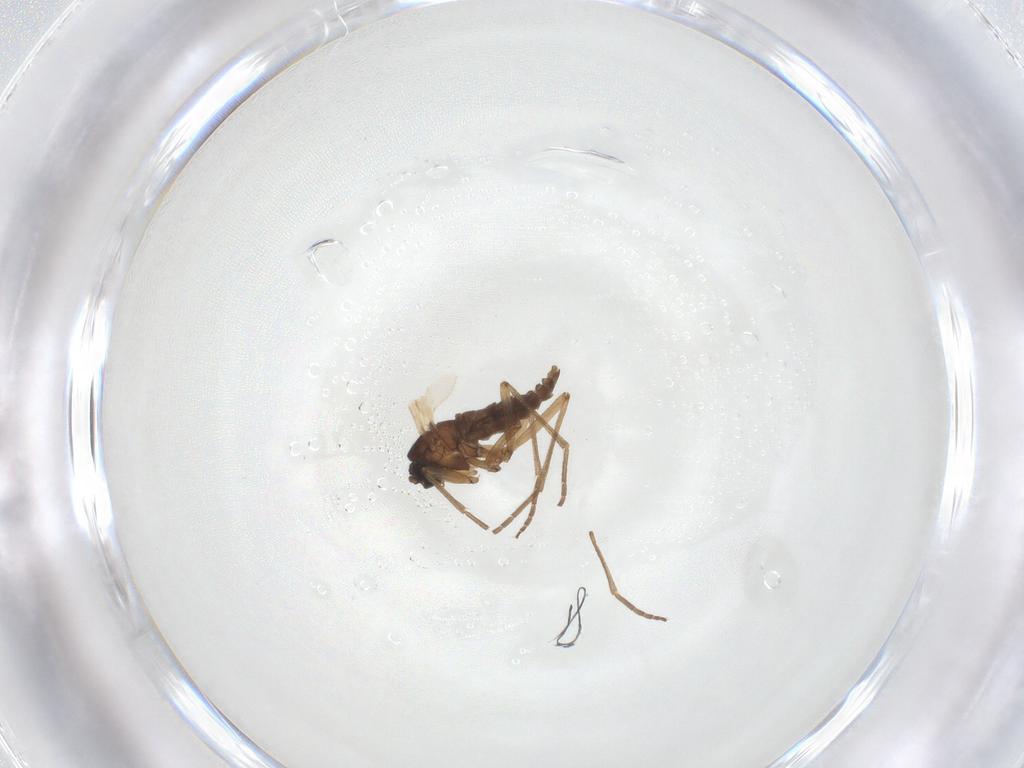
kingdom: Animalia
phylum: Arthropoda
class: Insecta
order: Diptera
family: Sciaridae
